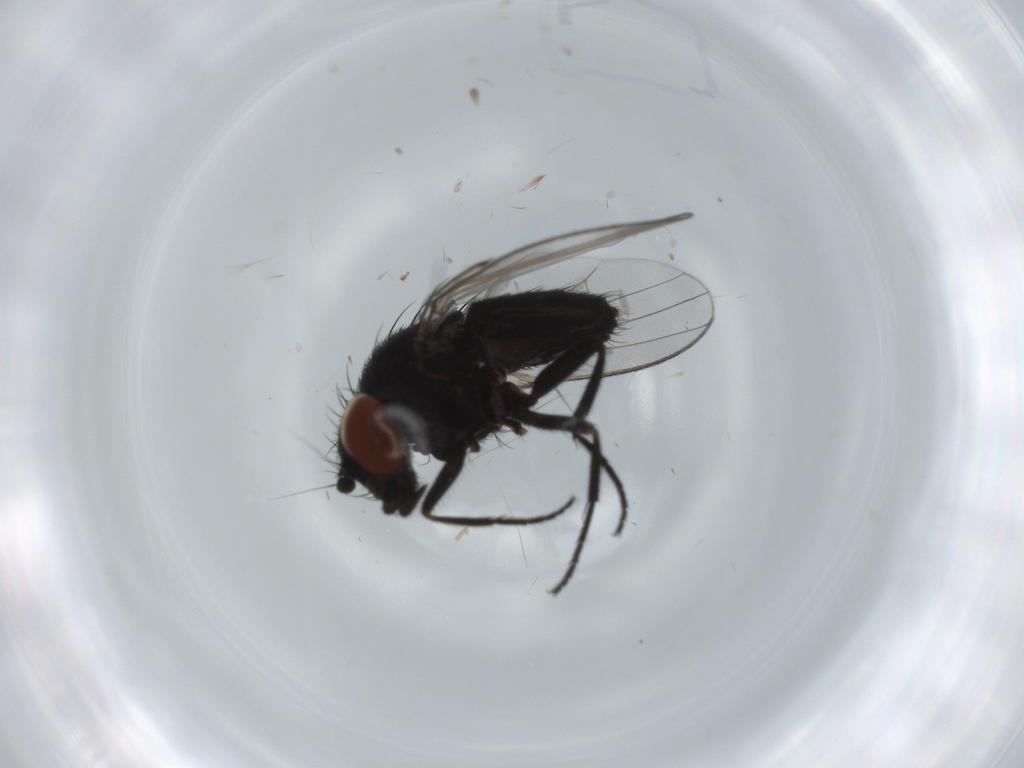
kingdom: Animalia
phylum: Arthropoda
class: Insecta
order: Diptera
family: Milichiidae
